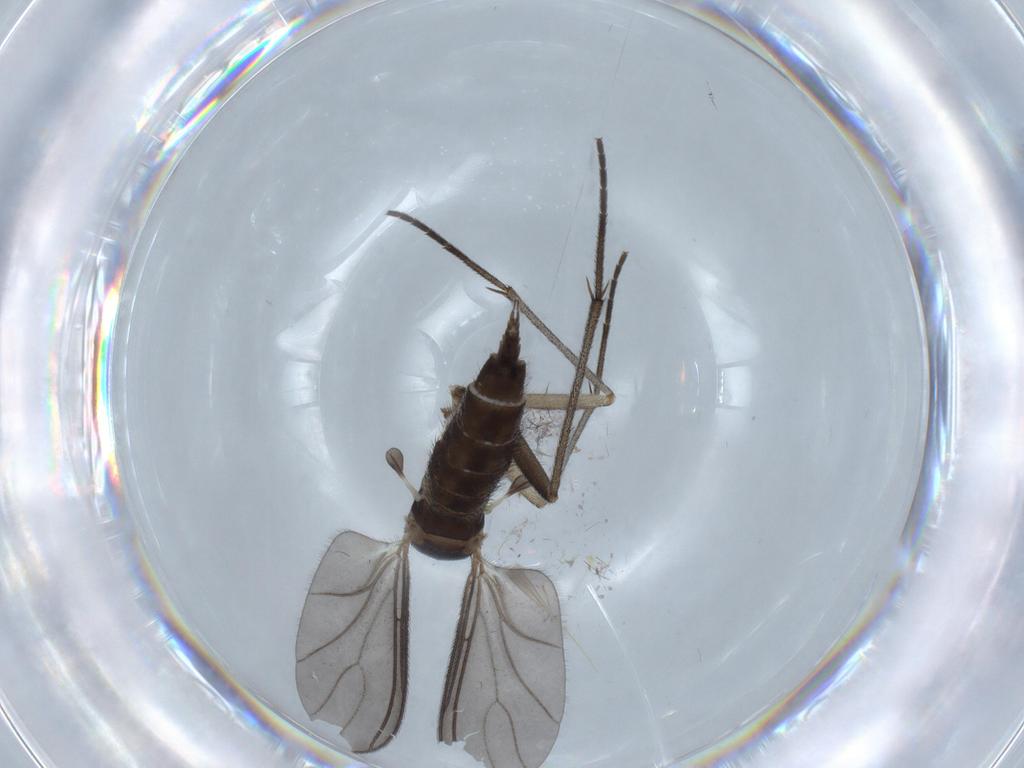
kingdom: Animalia
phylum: Arthropoda
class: Insecta
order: Diptera
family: Sciaridae
